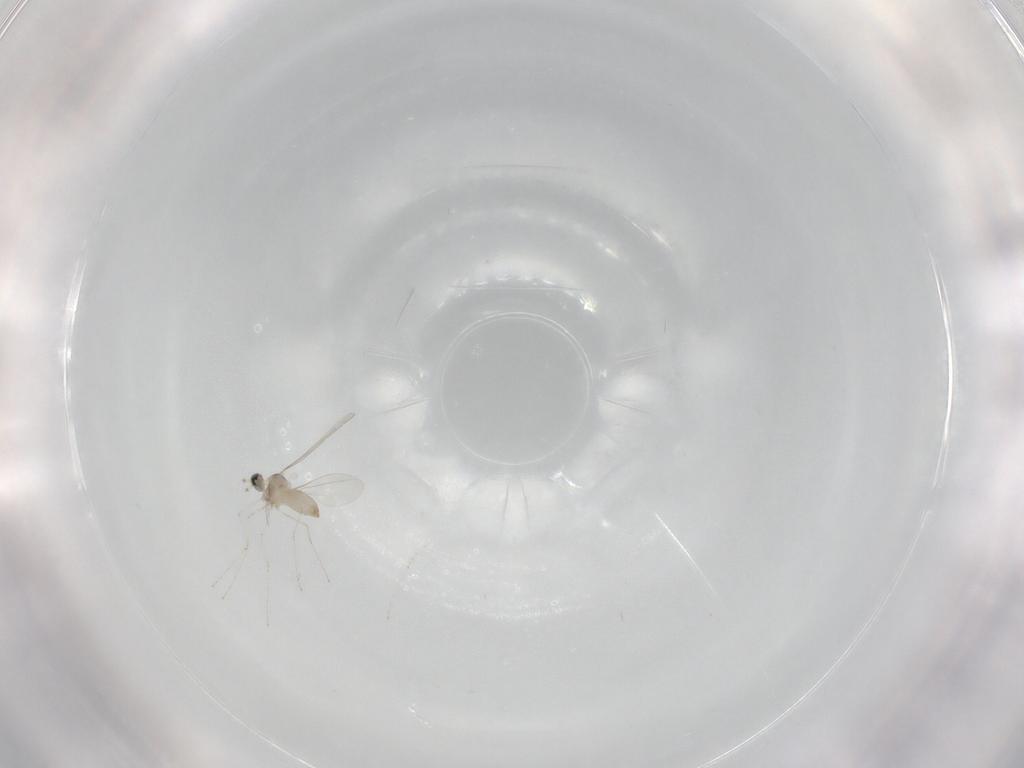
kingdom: Animalia
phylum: Arthropoda
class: Insecta
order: Diptera
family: Cecidomyiidae
